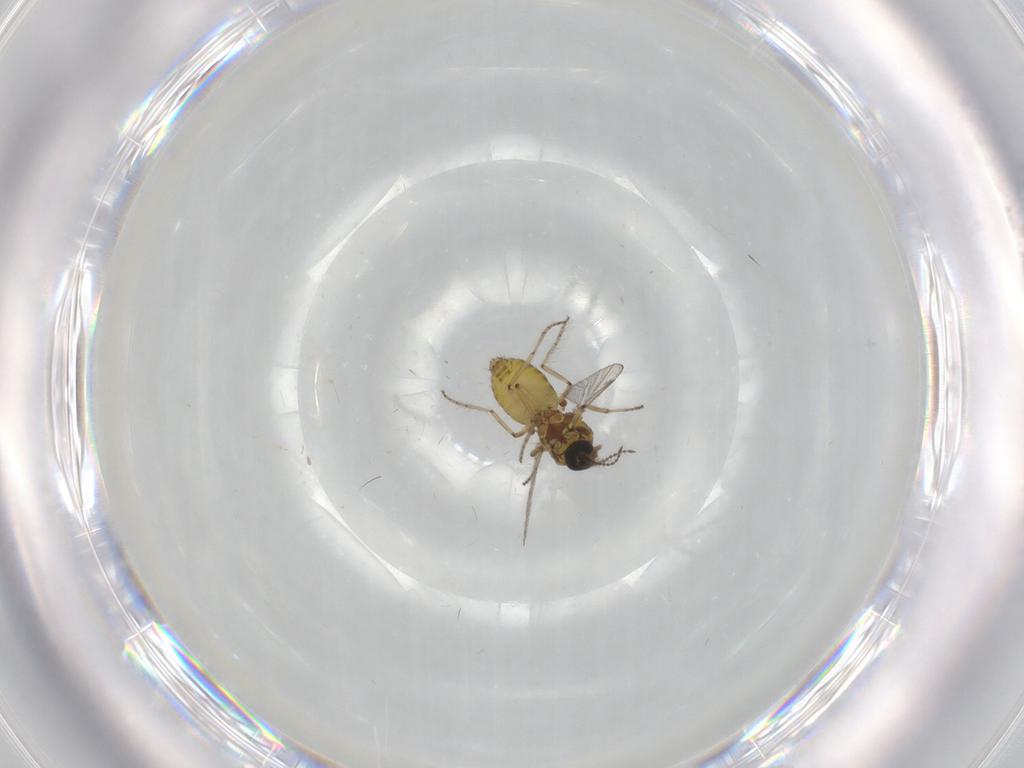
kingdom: Animalia
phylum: Arthropoda
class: Insecta
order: Diptera
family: Ceratopogonidae
